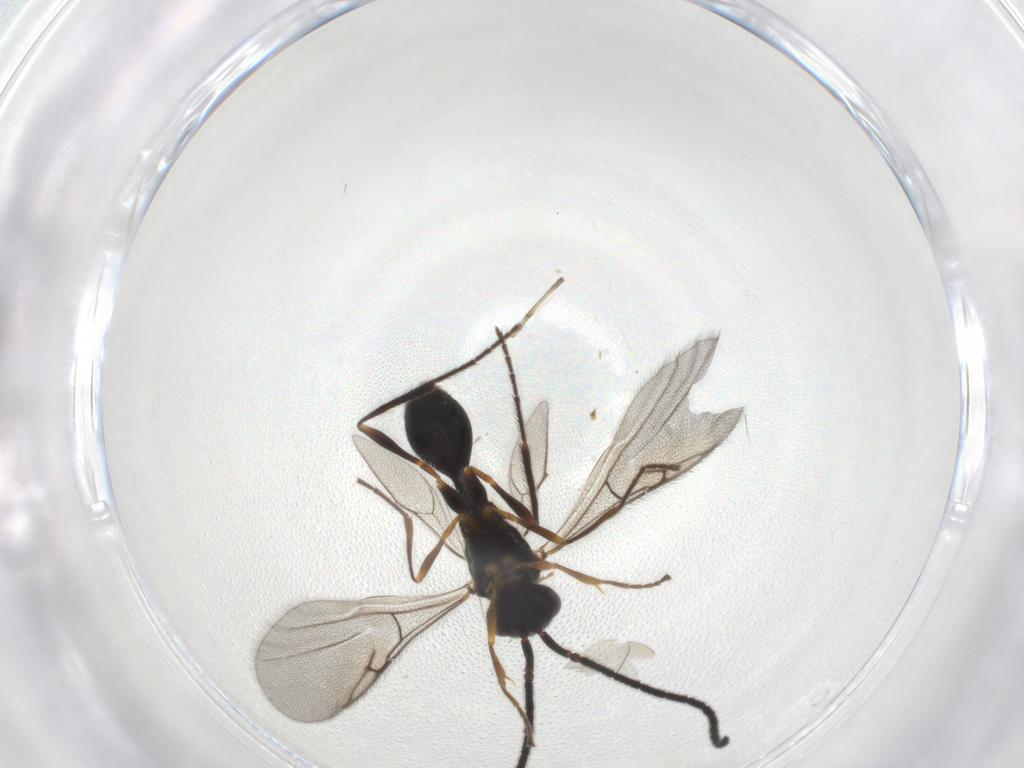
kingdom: Animalia
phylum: Arthropoda
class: Insecta
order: Hymenoptera
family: Diapriidae
